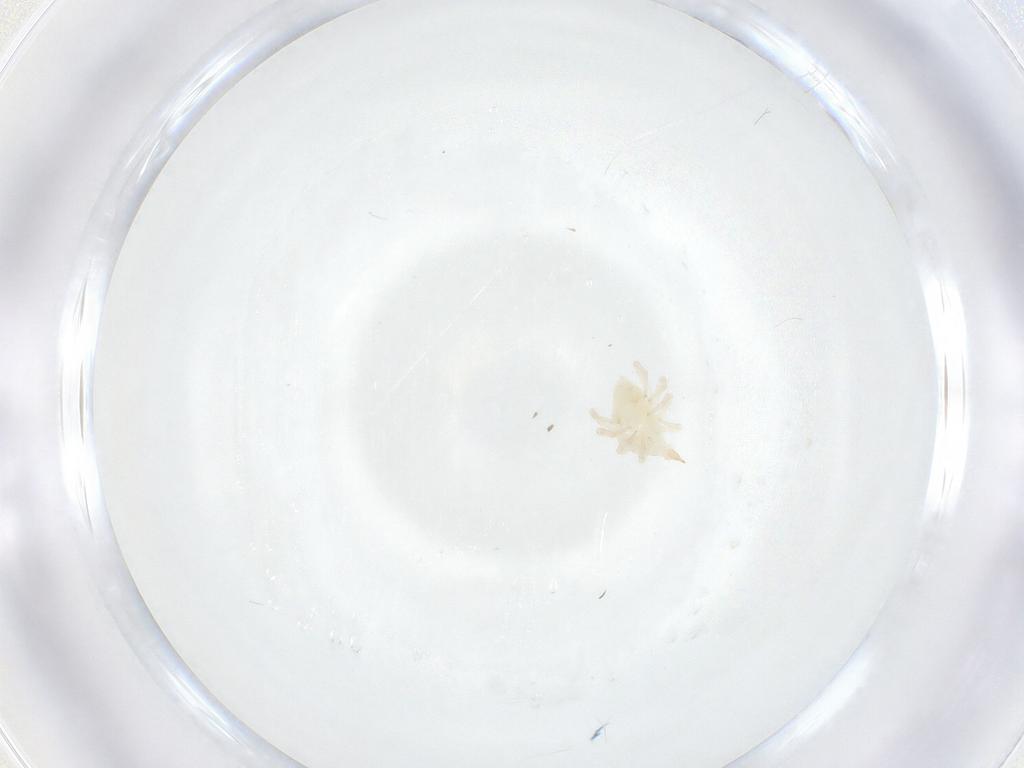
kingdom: Animalia
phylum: Arthropoda
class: Arachnida
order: Trombidiformes
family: Bdellidae
